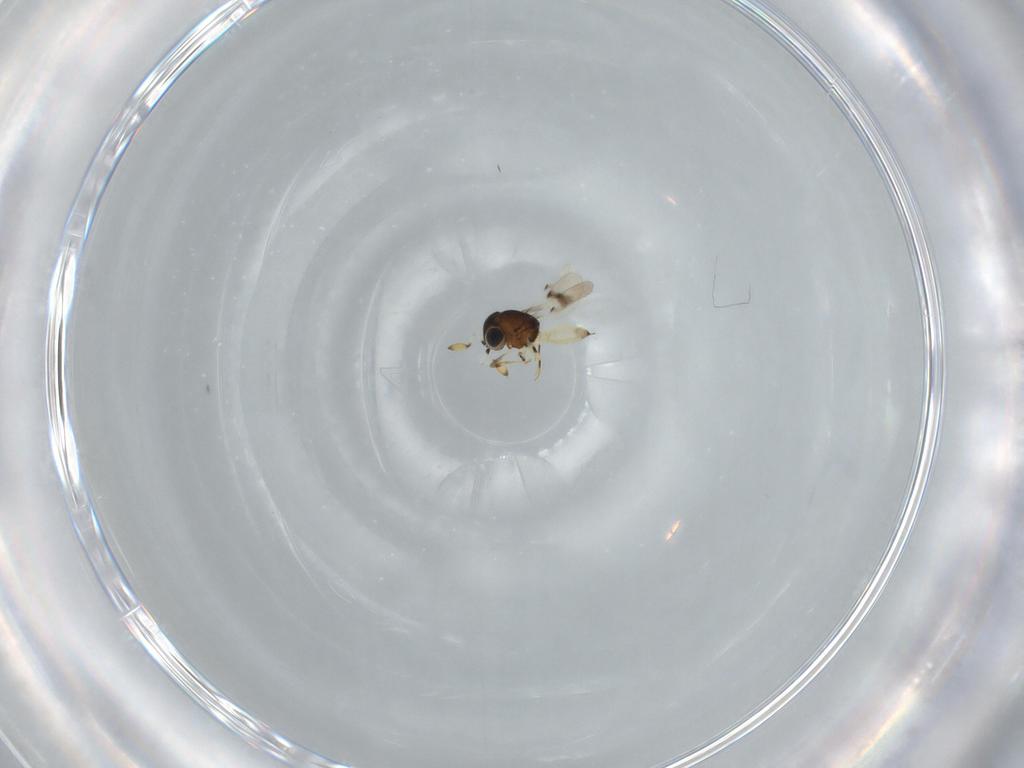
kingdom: Animalia
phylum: Arthropoda
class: Insecta
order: Hymenoptera
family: Scelionidae
